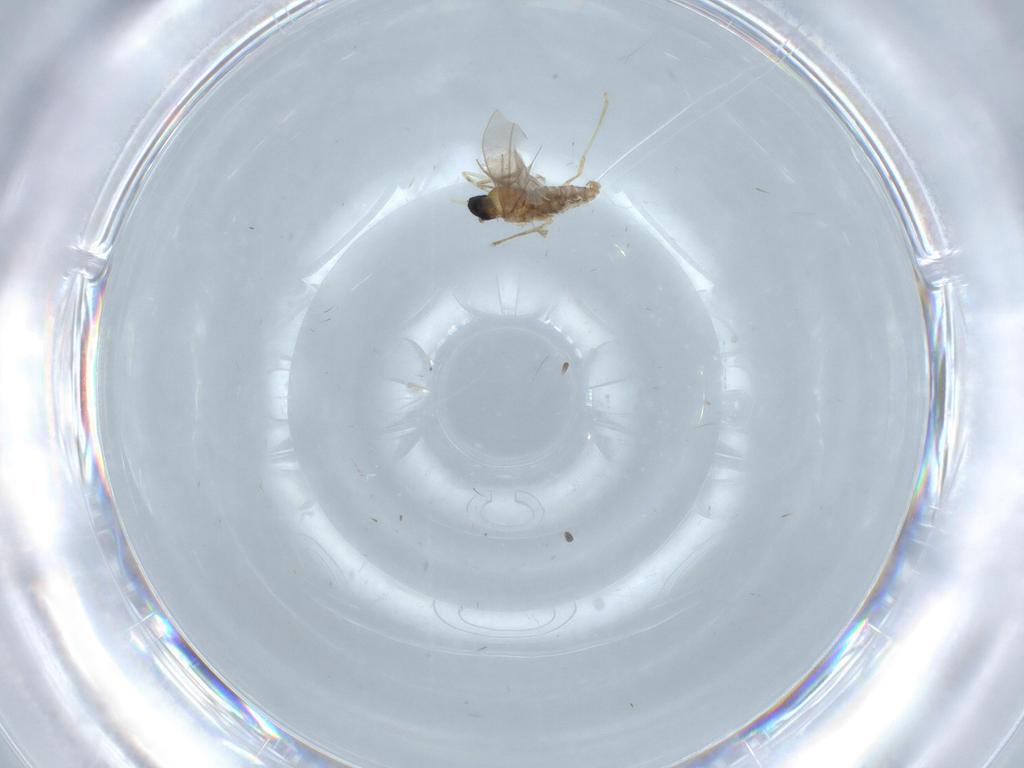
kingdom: Animalia
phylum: Arthropoda
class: Insecta
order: Diptera
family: Cecidomyiidae
